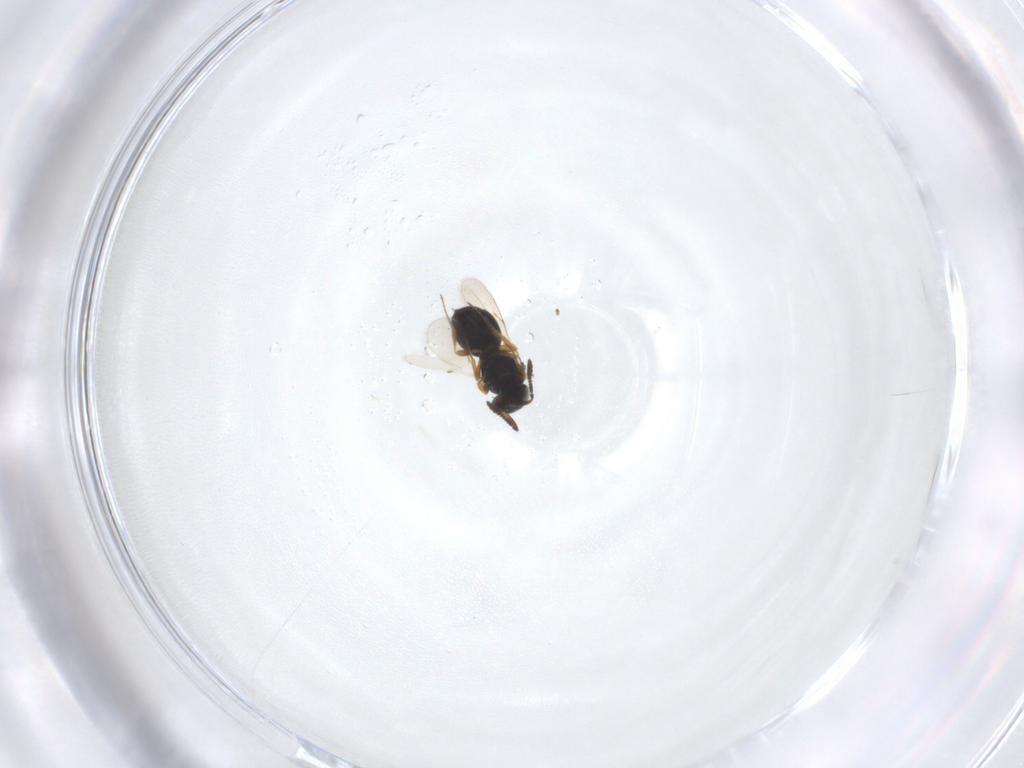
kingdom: Animalia
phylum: Arthropoda
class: Insecta
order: Hymenoptera
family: Scelionidae
